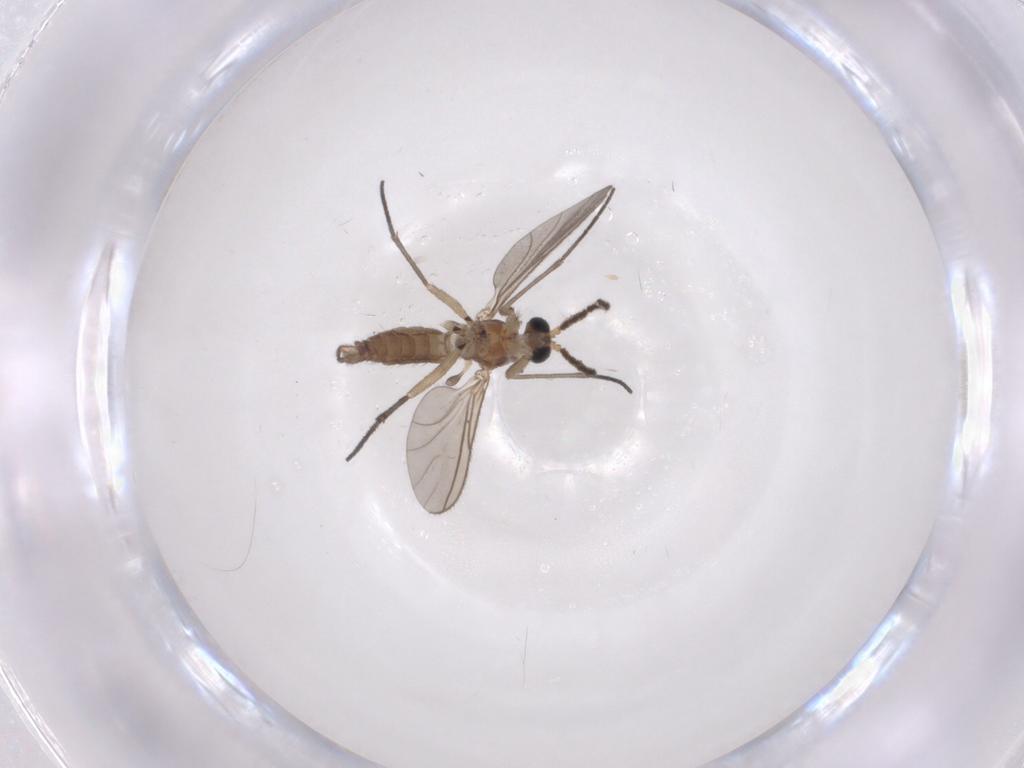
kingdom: Animalia
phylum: Arthropoda
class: Insecta
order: Diptera
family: Sciaridae
